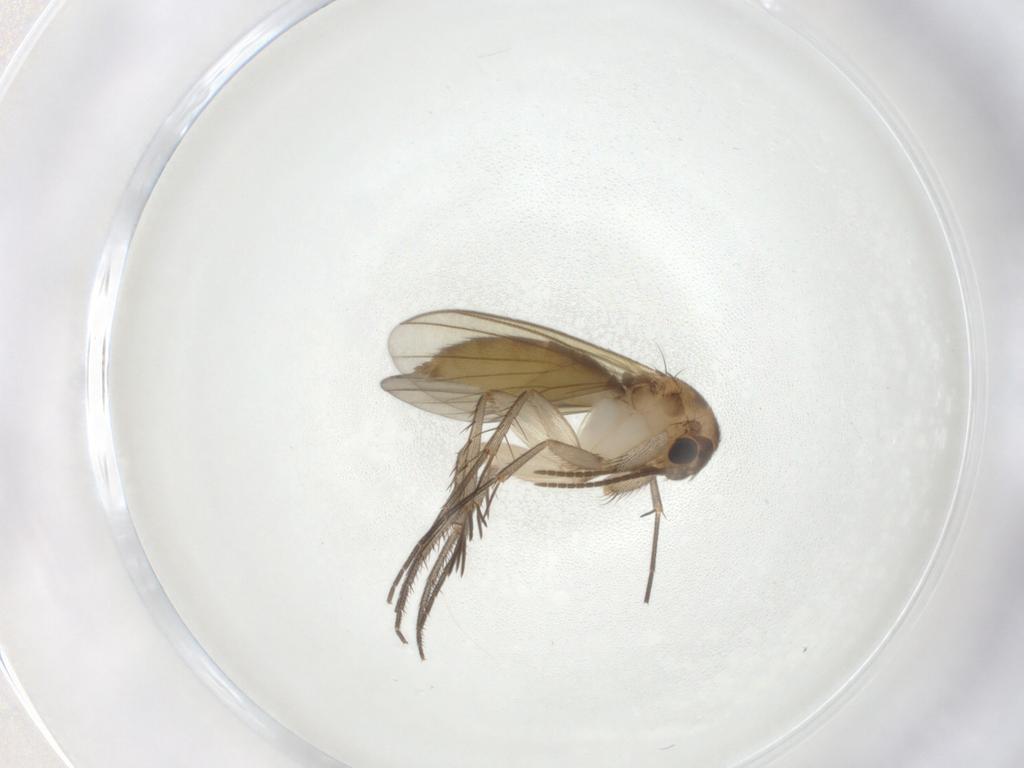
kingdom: Animalia
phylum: Arthropoda
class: Insecta
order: Diptera
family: Mycetophilidae
